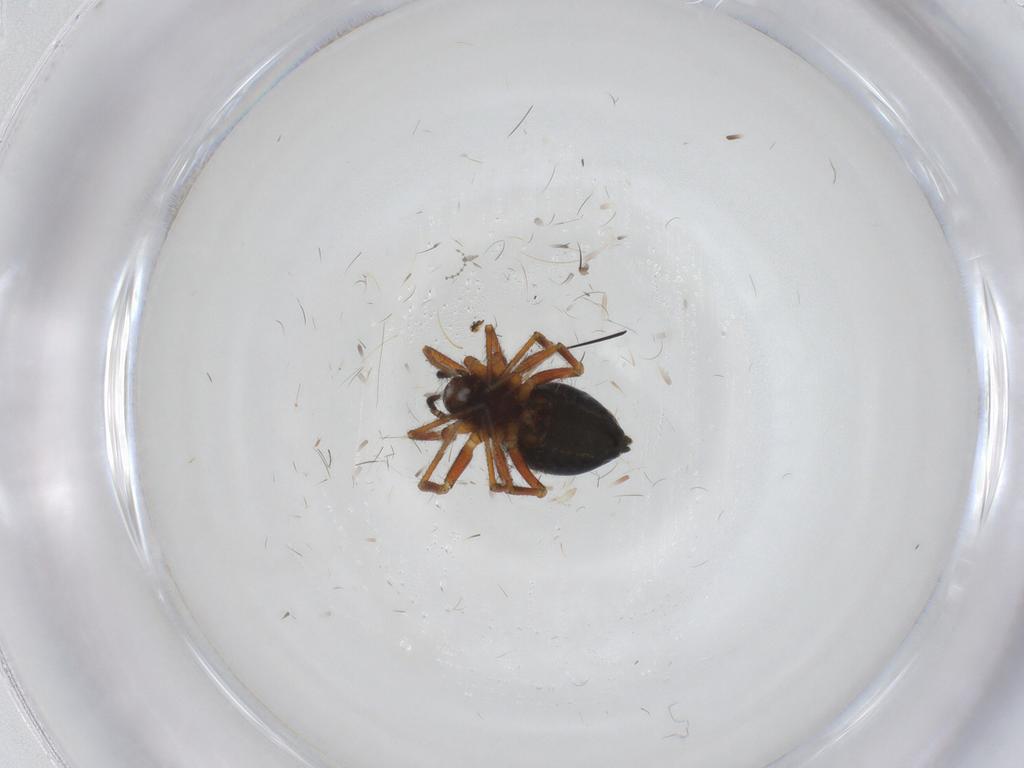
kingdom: Animalia
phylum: Arthropoda
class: Arachnida
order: Araneae
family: Linyphiidae
